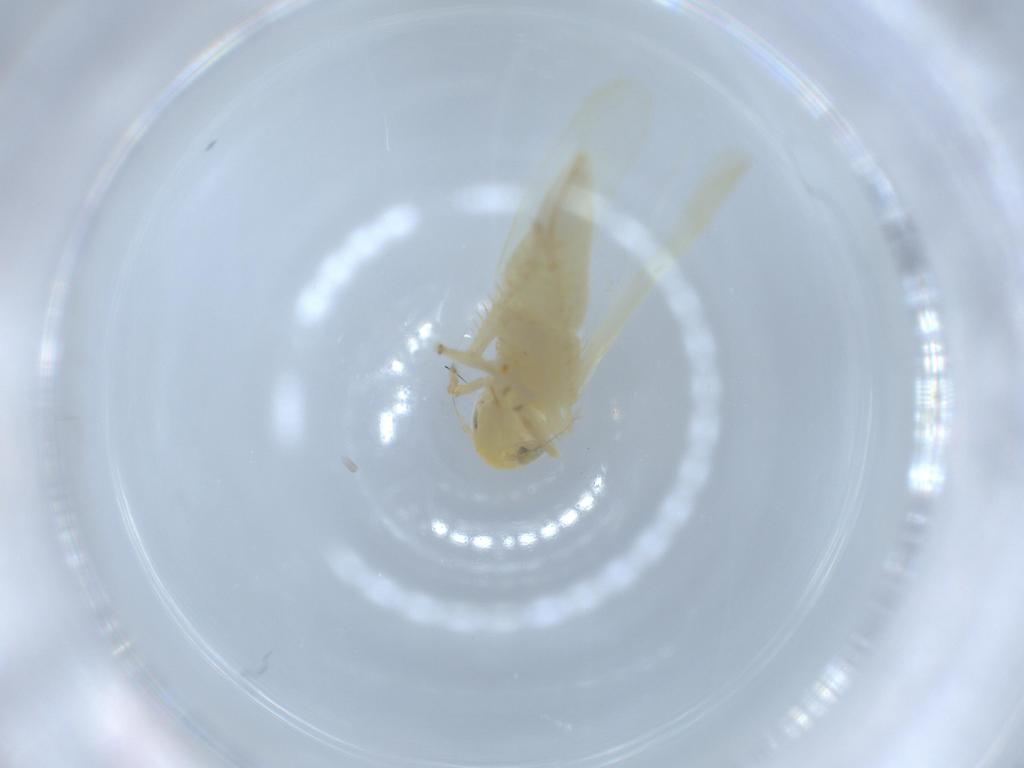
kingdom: Animalia
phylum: Arthropoda
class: Insecta
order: Hemiptera
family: Cicadellidae
